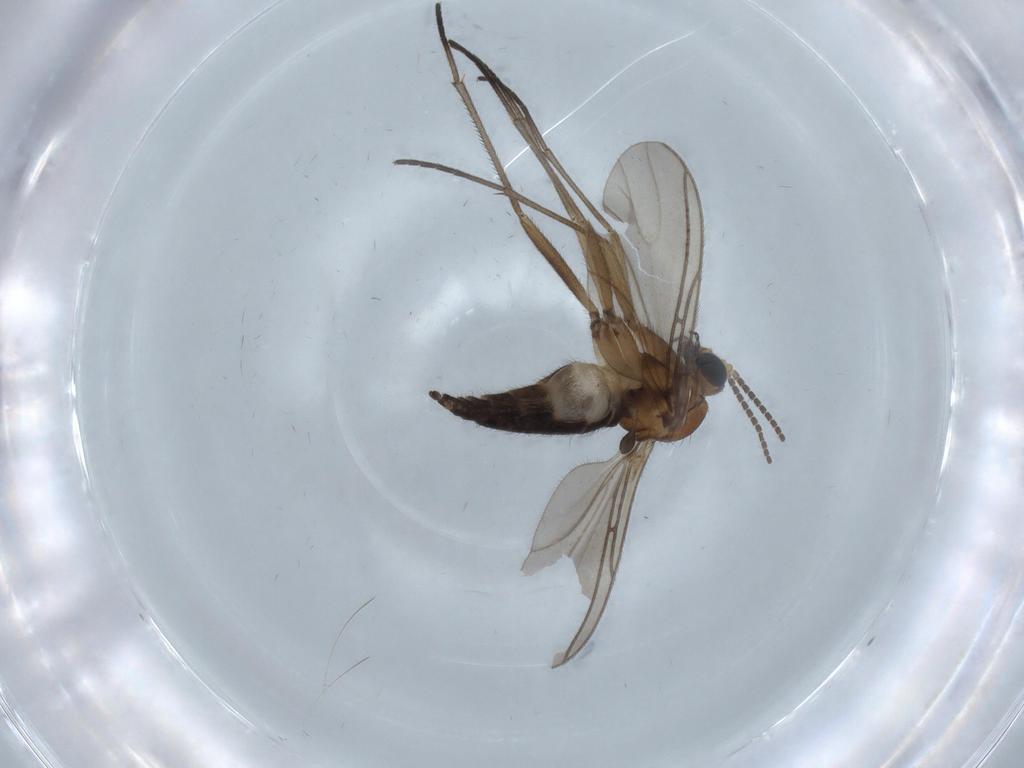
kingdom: Animalia
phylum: Arthropoda
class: Insecta
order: Diptera
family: Sciaridae
